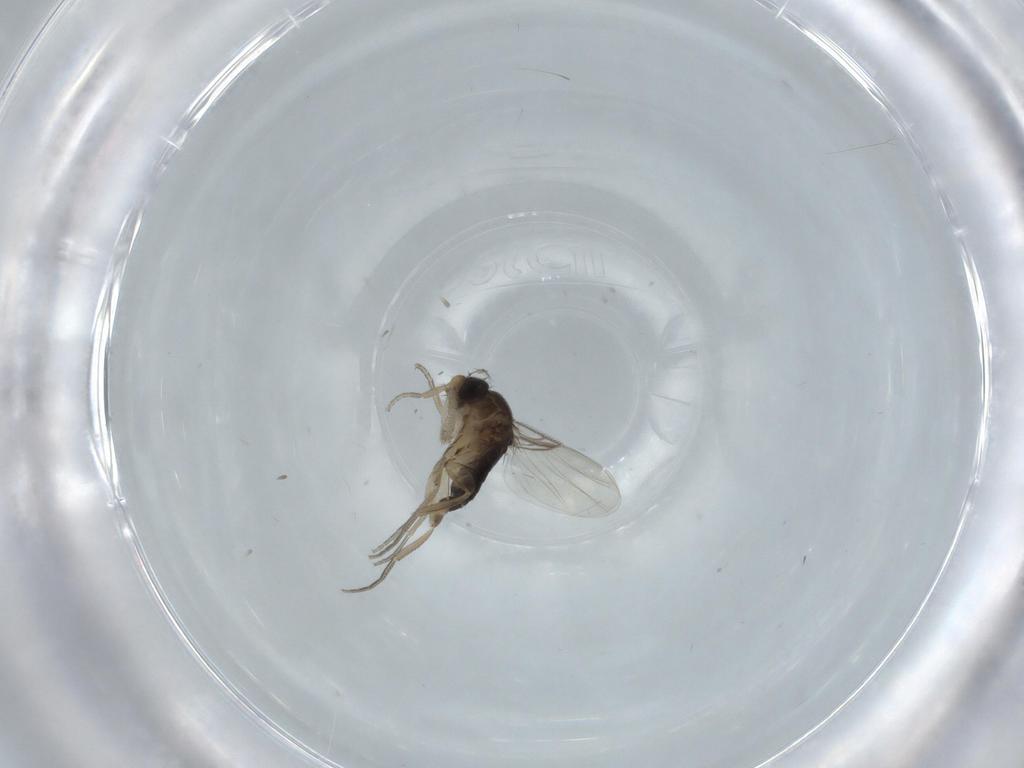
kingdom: Animalia
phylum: Arthropoda
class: Insecta
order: Diptera
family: Phoridae
